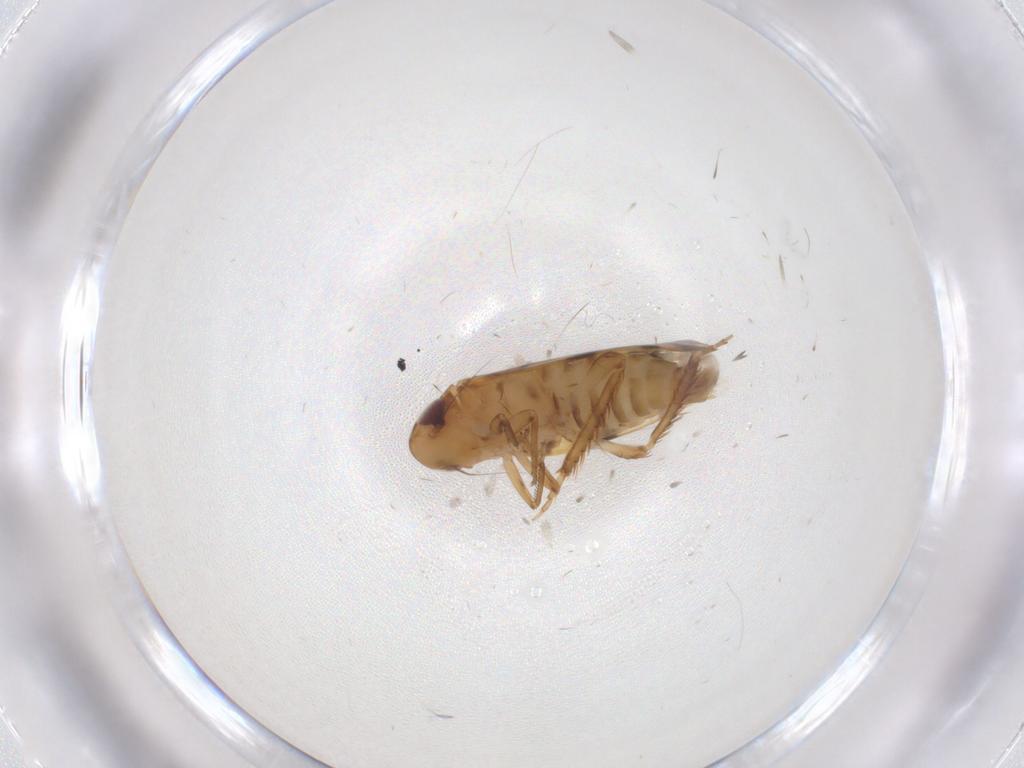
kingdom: Animalia
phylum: Arthropoda
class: Insecta
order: Hemiptera
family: Cicadellidae
